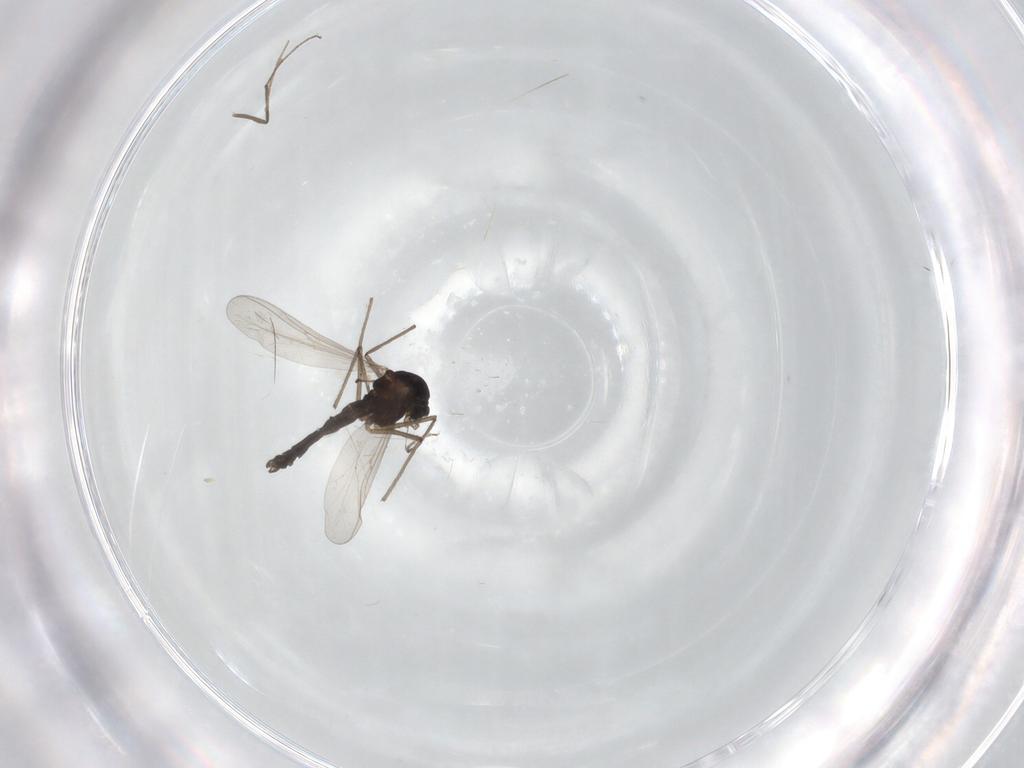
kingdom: Animalia
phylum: Arthropoda
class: Insecta
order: Diptera
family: Chironomidae
